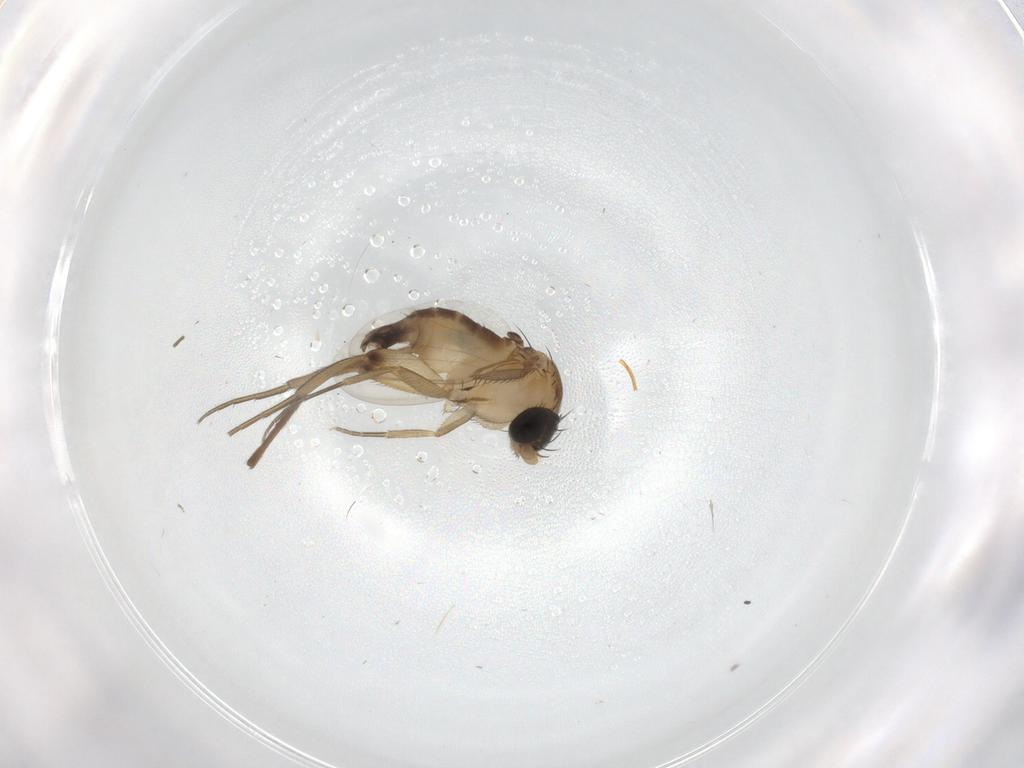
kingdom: Animalia
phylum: Arthropoda
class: Insecta
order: Diptera
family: Phoridae
